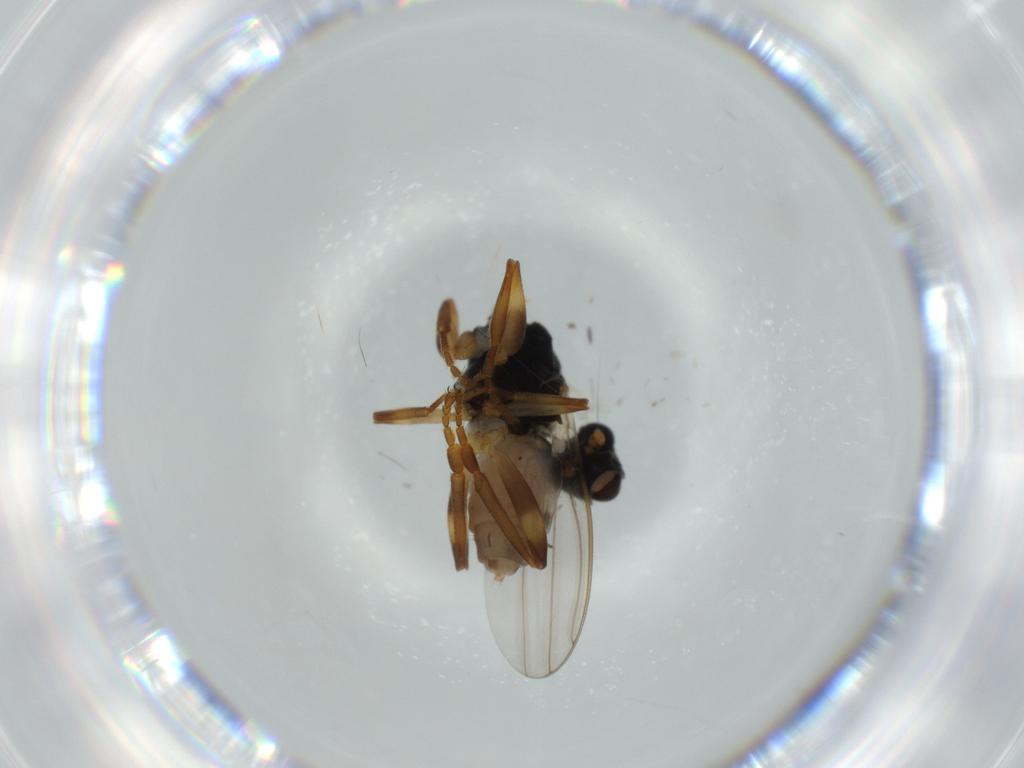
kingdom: Animalia
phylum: Arthropoda
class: Insecta
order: Diptera
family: Sphaeroceridae
